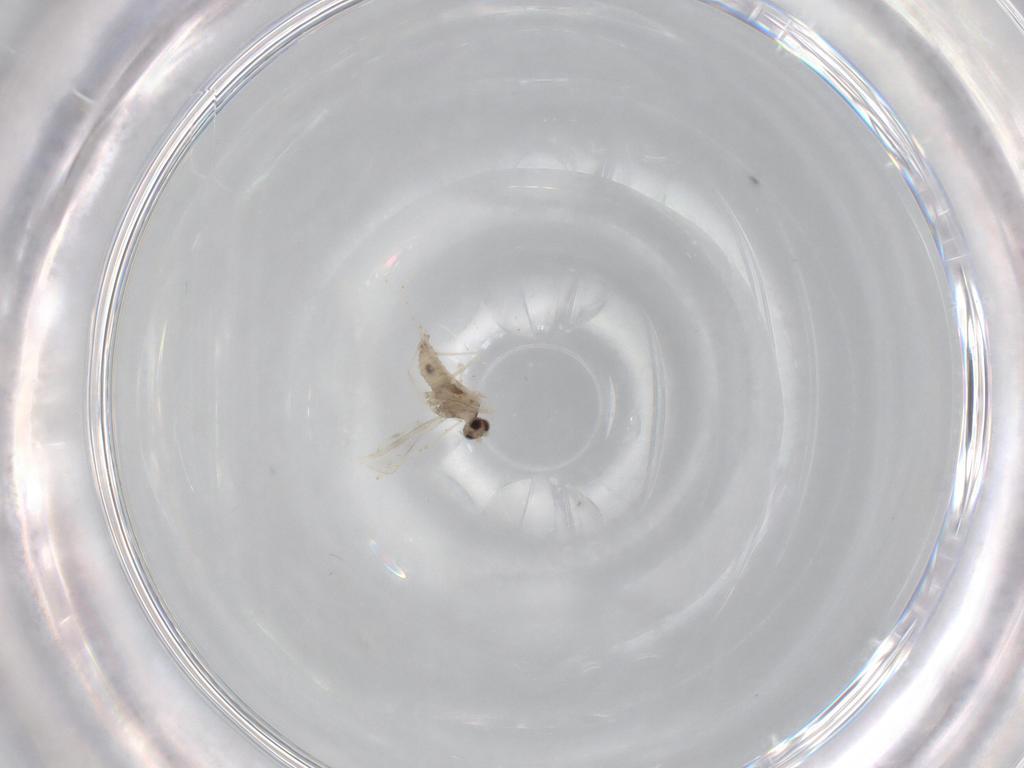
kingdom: Animalia
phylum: Arthropoda
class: Insecta
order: Diptera
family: Cecidomyiidae
